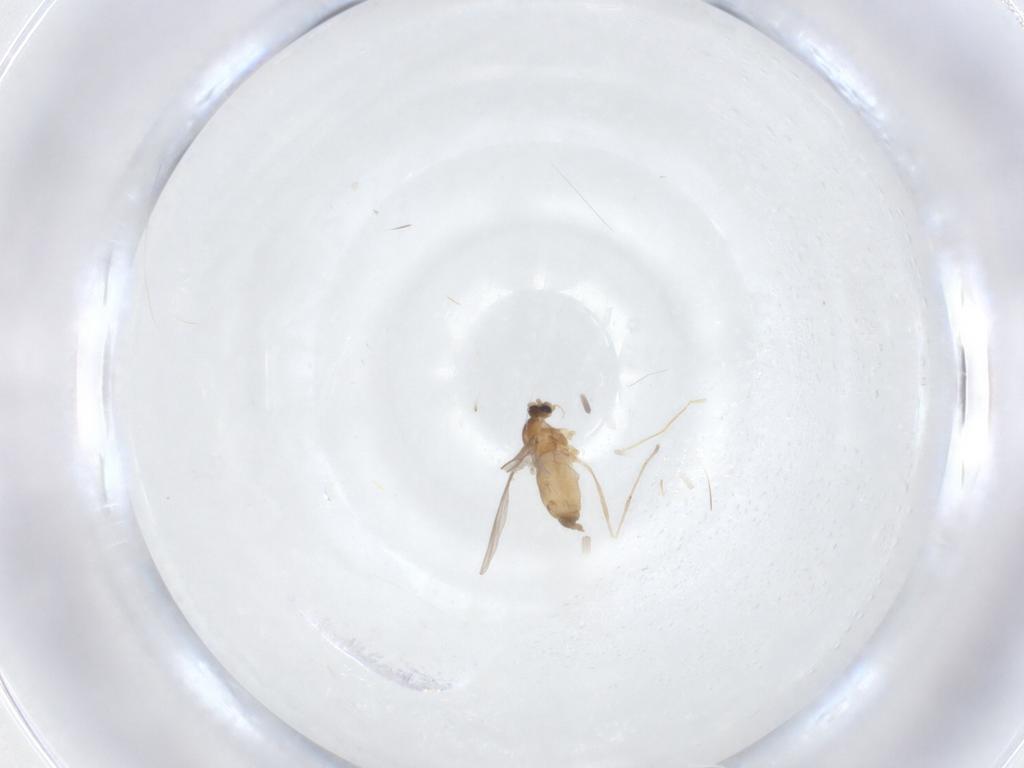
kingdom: Animalia
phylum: Arthropoda
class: Insecta
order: Diptera
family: Cecidomyiidae
